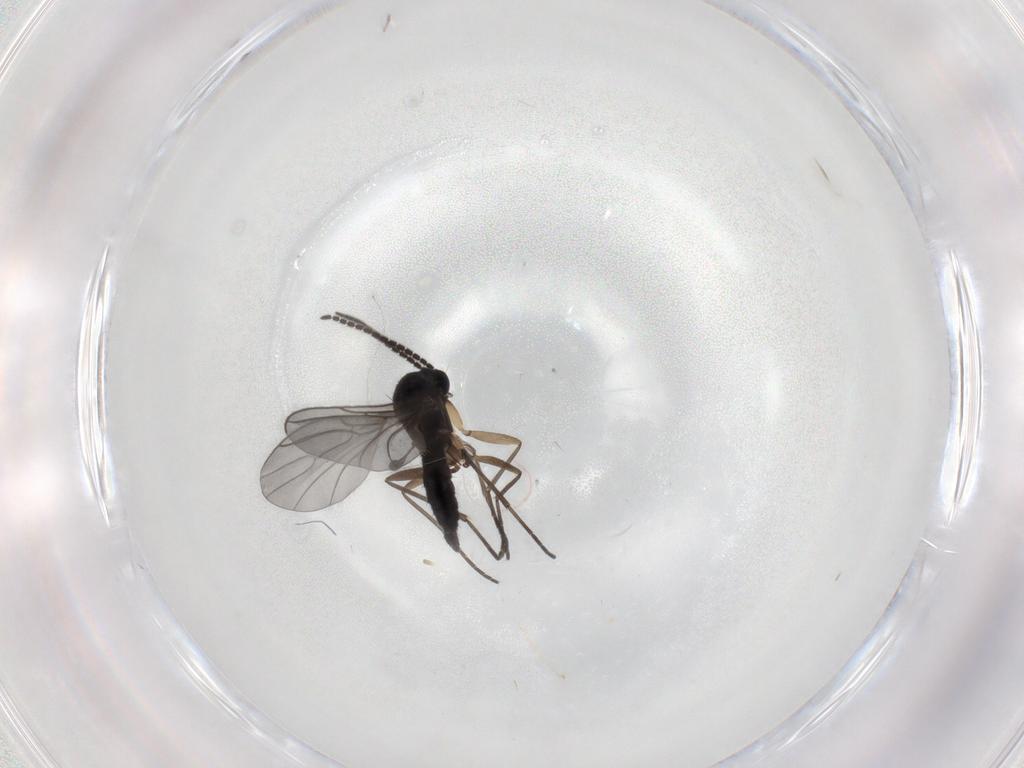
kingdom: Animalia
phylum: Arthropoda
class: Insecta
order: Diptera
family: Sciaridae
